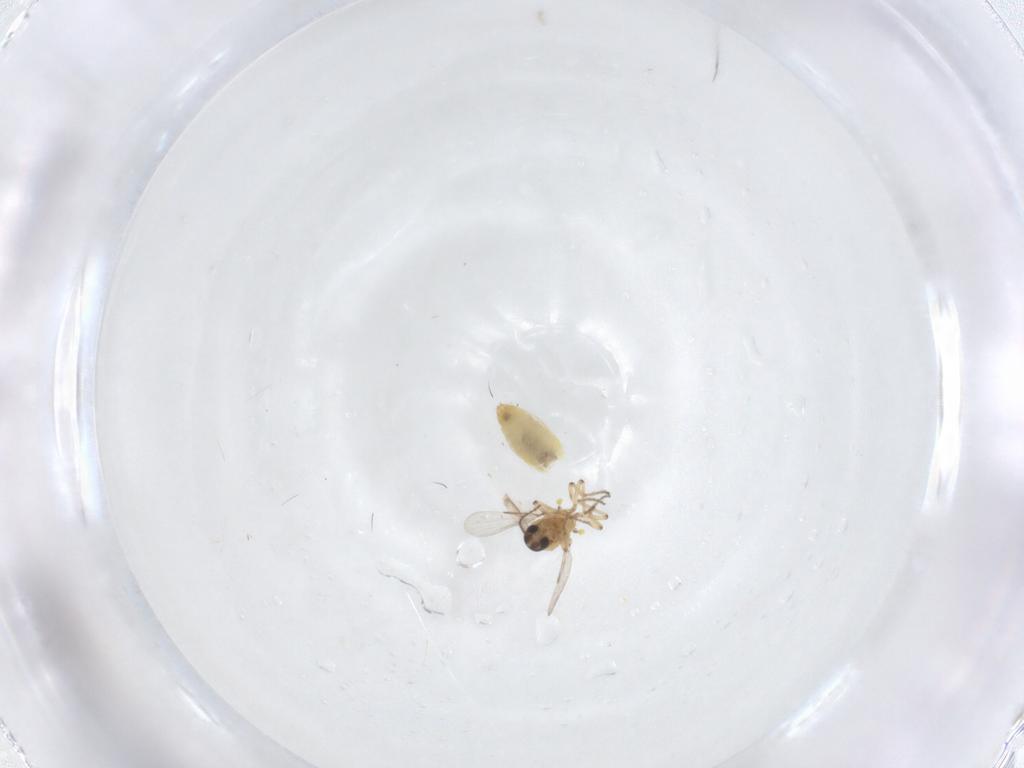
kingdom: Animalia
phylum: Arthropoda
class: Insecta
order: Diptera
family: Ceratopogonidae
